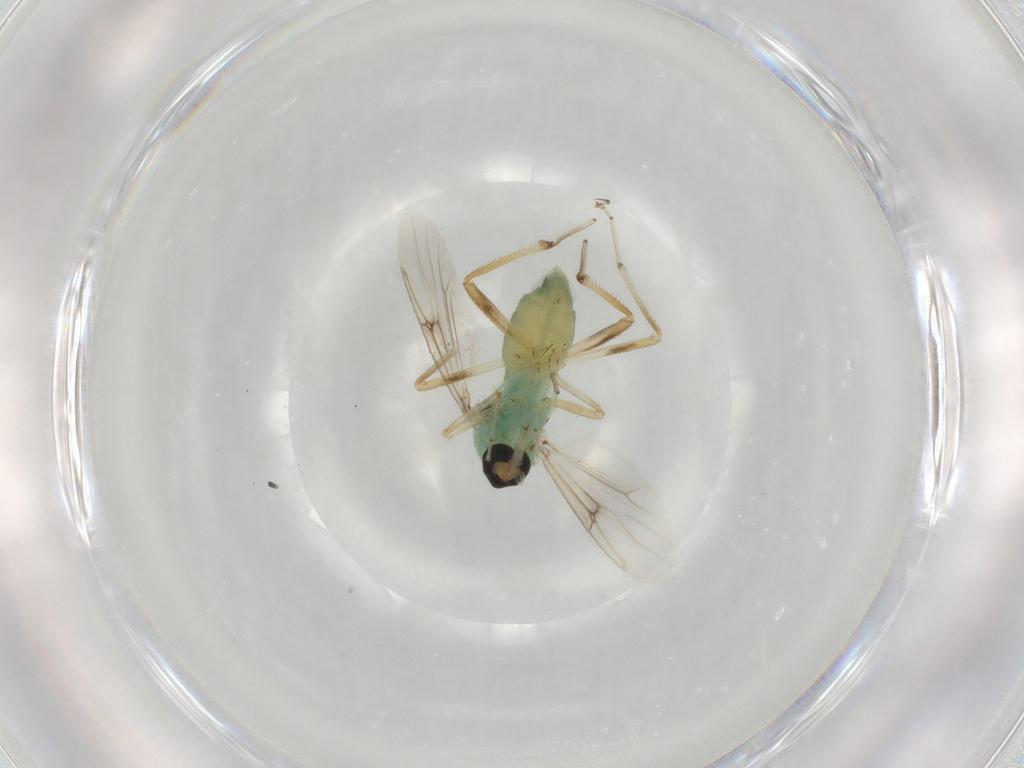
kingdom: Animalia
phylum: Arthropoda
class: Insecta
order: Diptera
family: Ceratopogonidae
